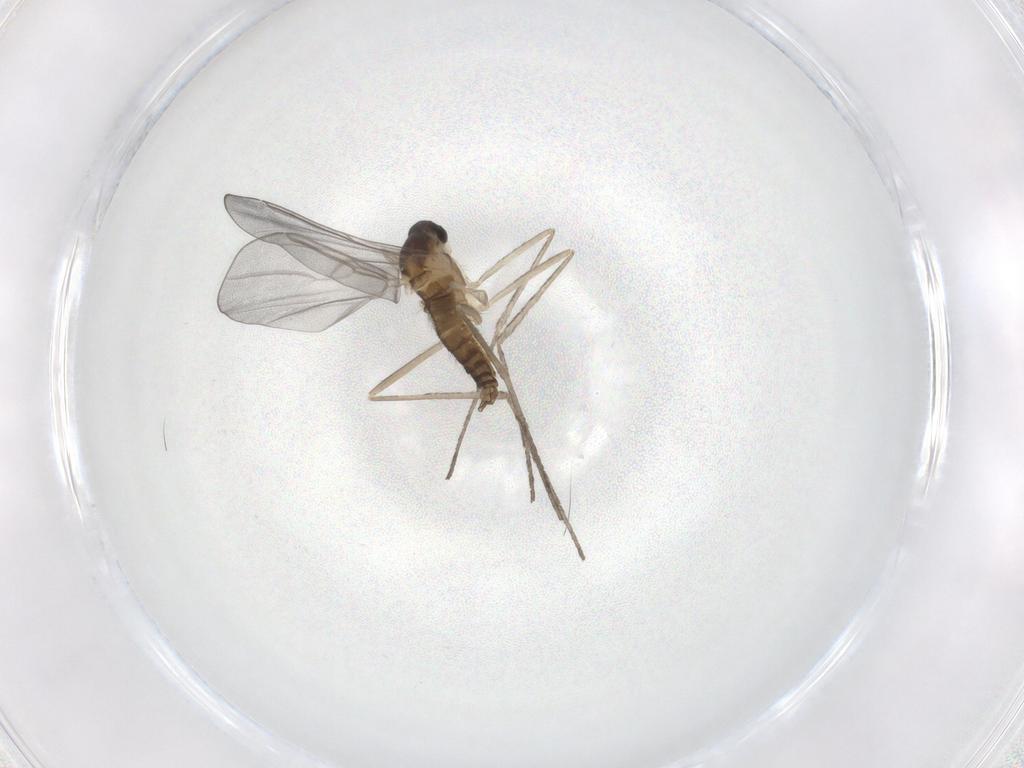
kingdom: Animalia
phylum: Arthropoda
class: Insecta
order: Diptera
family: Cecidomyiidae
